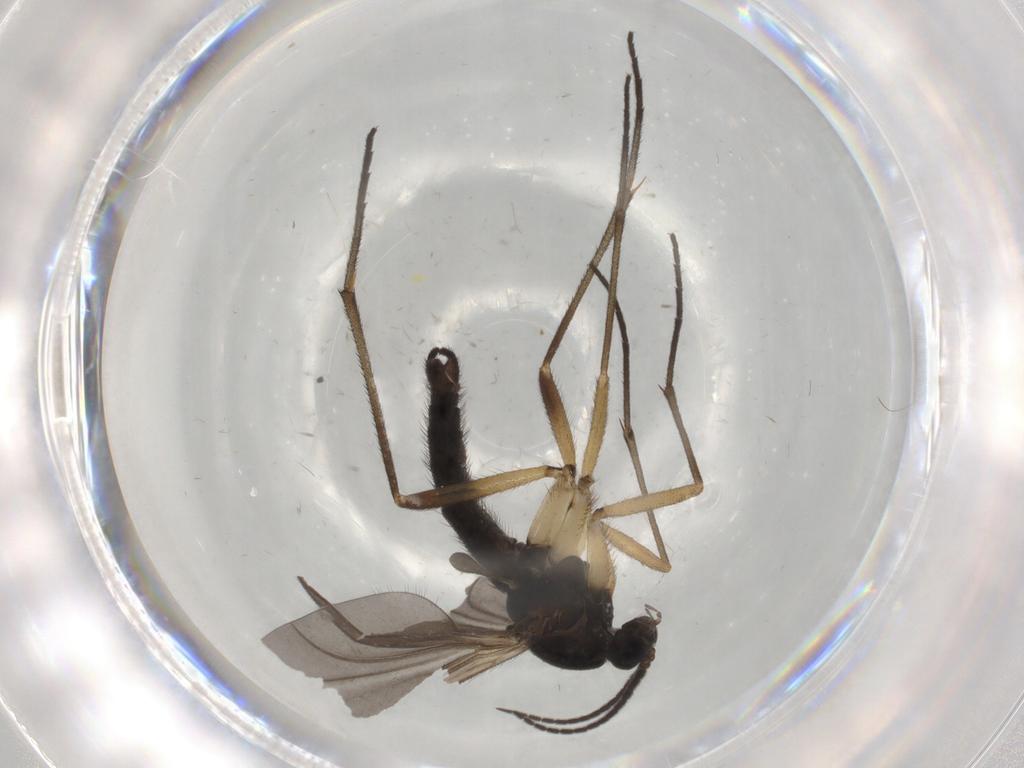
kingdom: Animalia
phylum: Arthropoda
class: Insecta
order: Diptera
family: Sciaridae
